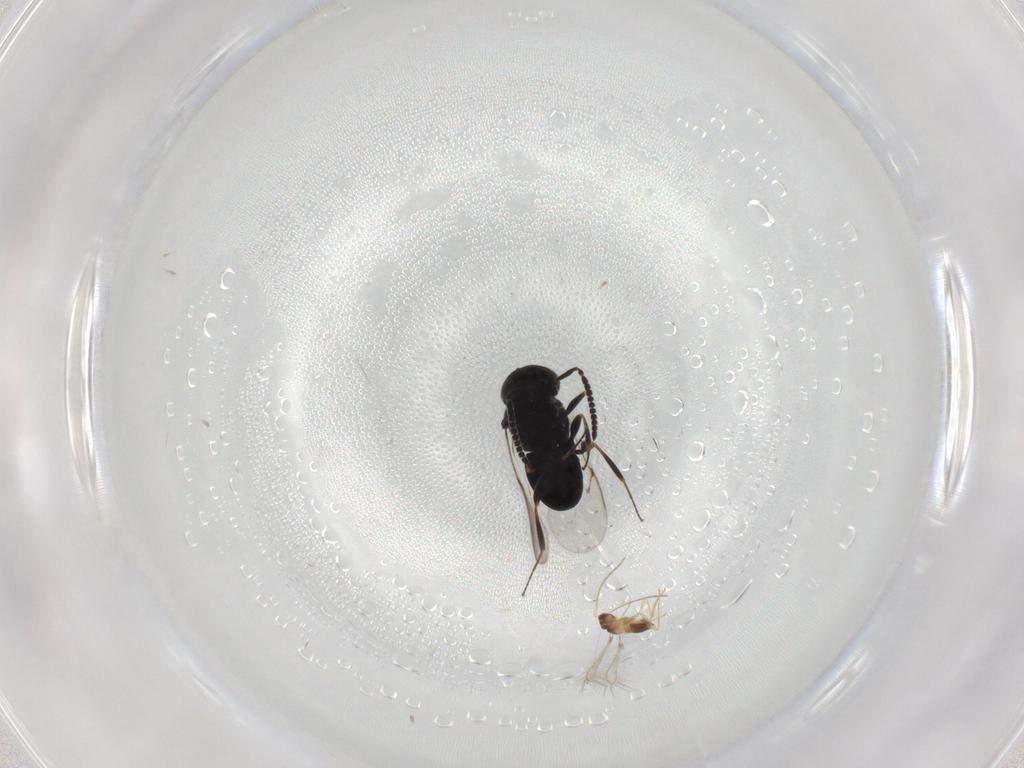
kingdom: Animalia
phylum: Arthropoda
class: Insecta
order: Hymenoptera
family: Scelionidae
